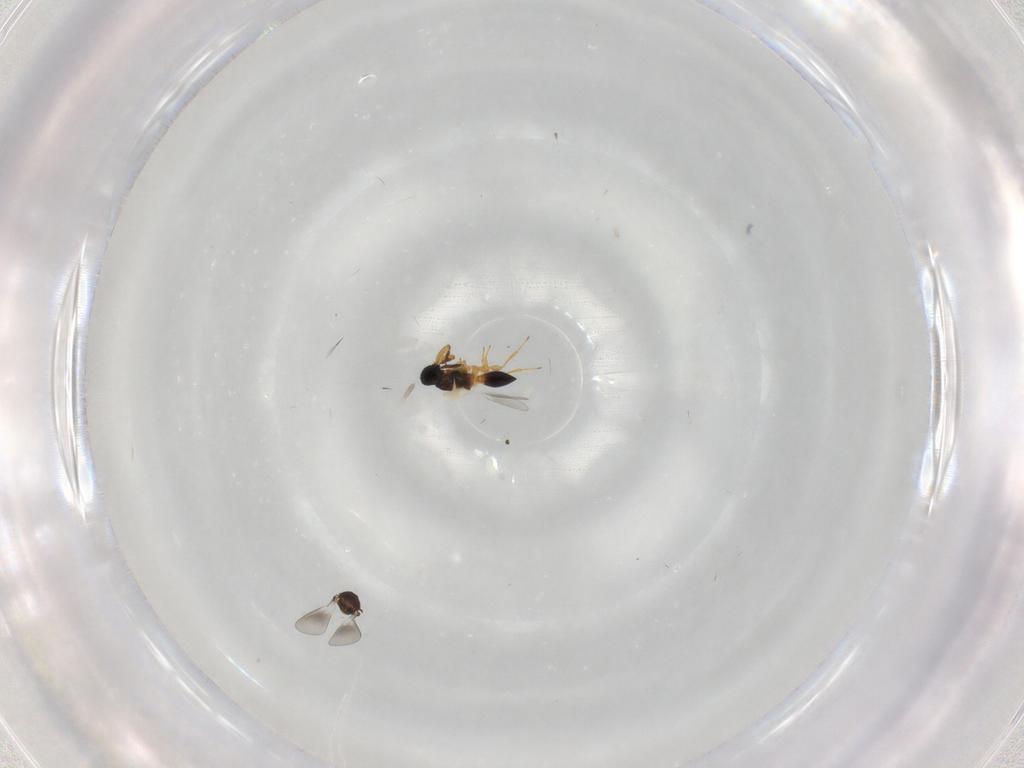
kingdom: Animalia
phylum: Arthropoda
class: Insecta
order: Hymenoptera
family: Platygastridae
